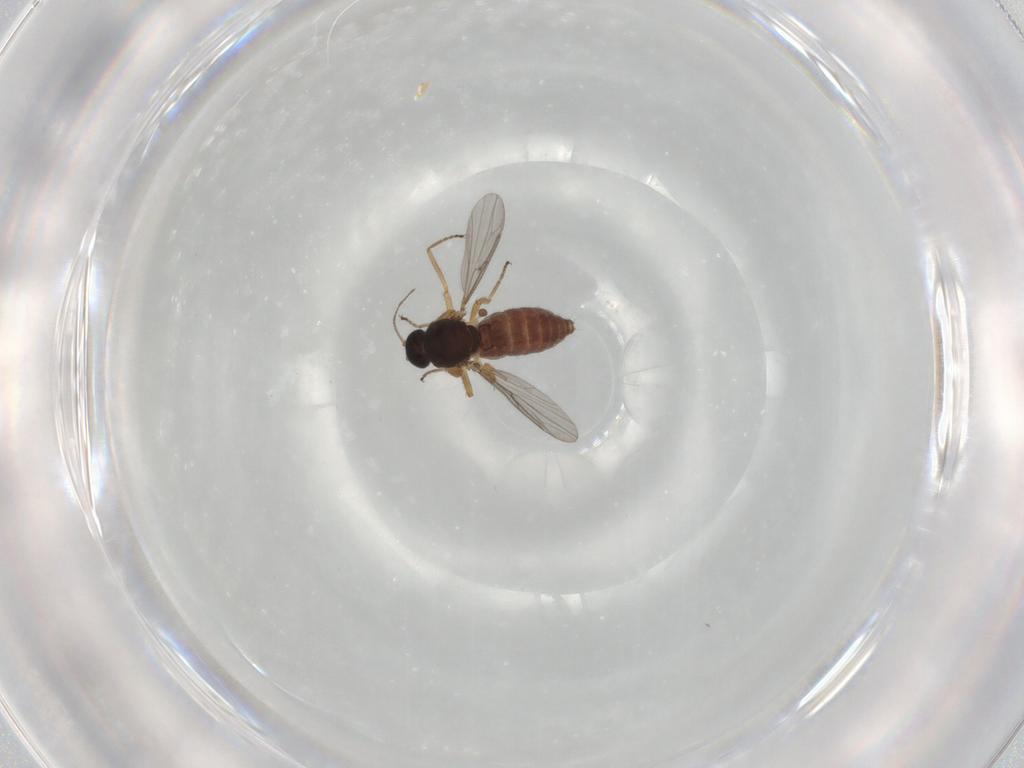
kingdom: Animalia
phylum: Arthropoda
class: Insecta
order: Diptera
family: Ceratopogonidae
